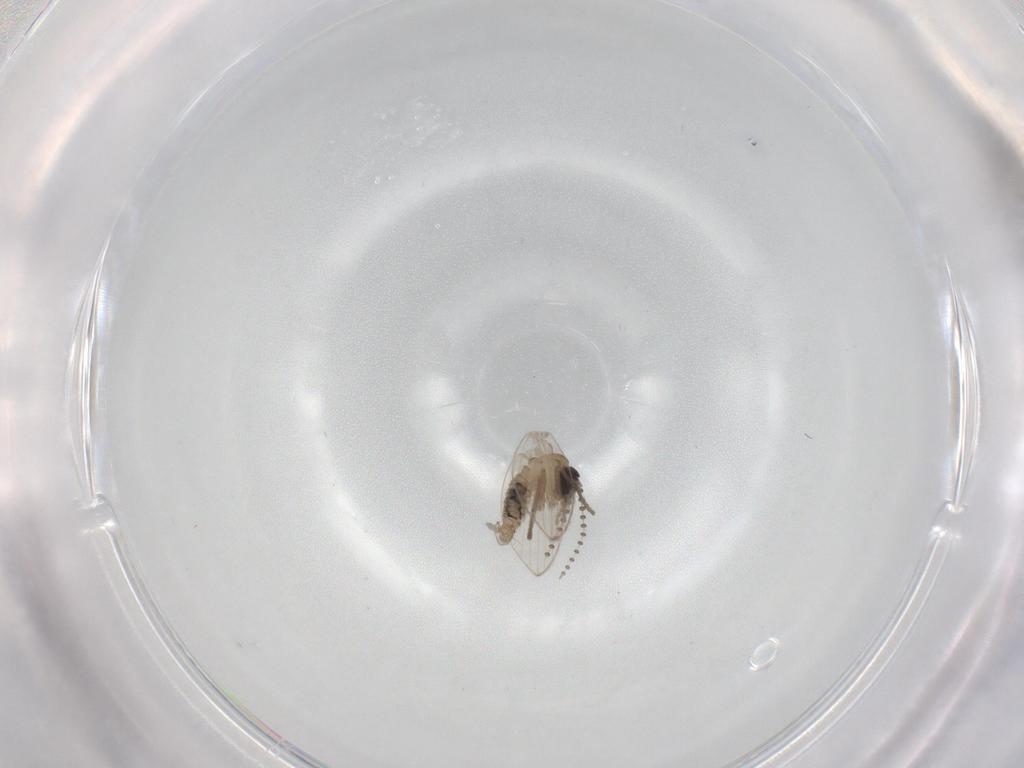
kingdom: Animalia
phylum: Arthropoda
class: Insecta
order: Diptera
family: Psychodidae
